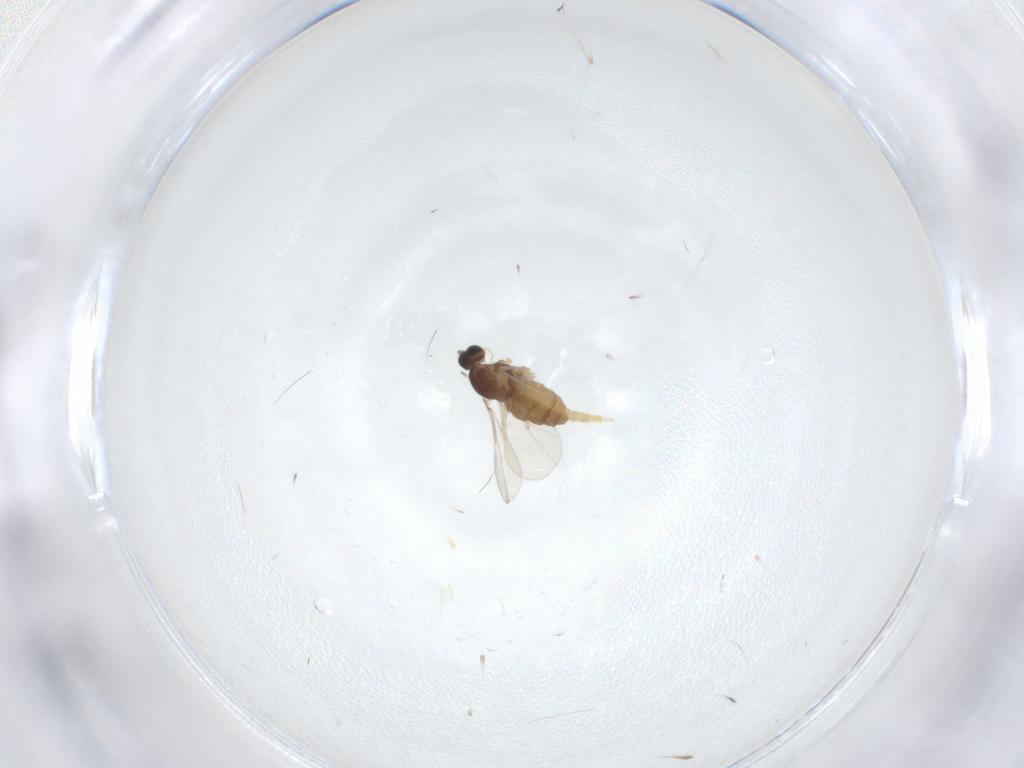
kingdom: Animalia
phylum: Arthropoda
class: Insecta
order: Diptera
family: Cecidomyiidae
